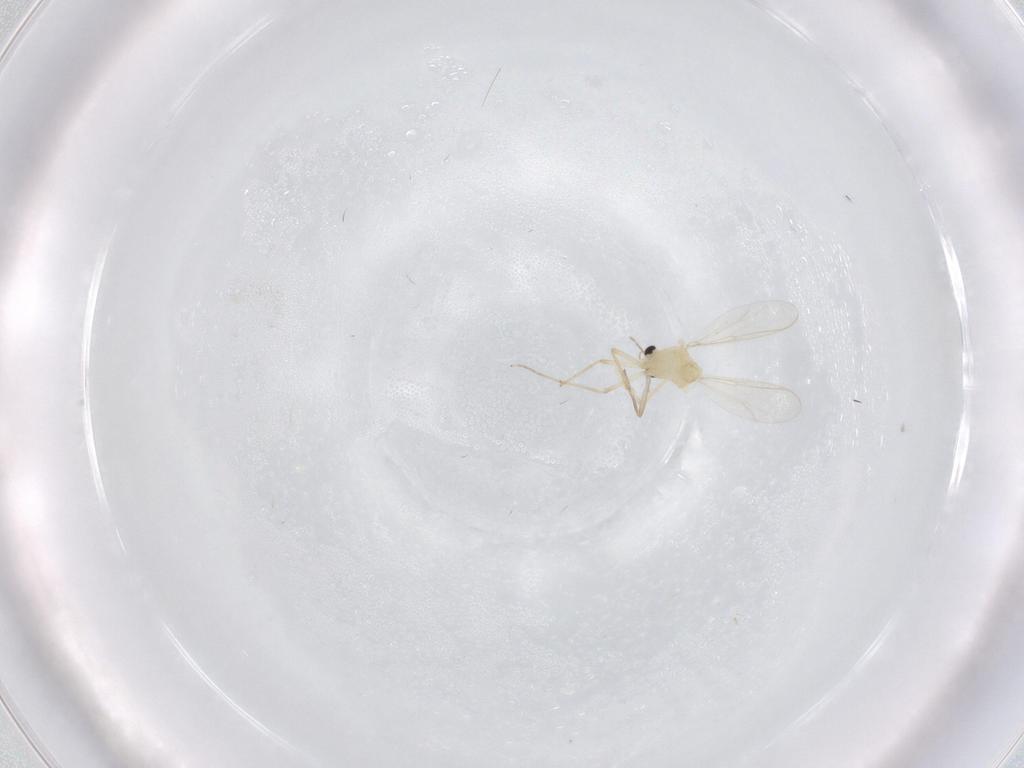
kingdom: Animalia
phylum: Arthropoda
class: Insecta
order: Diptera
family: Chironomidae
